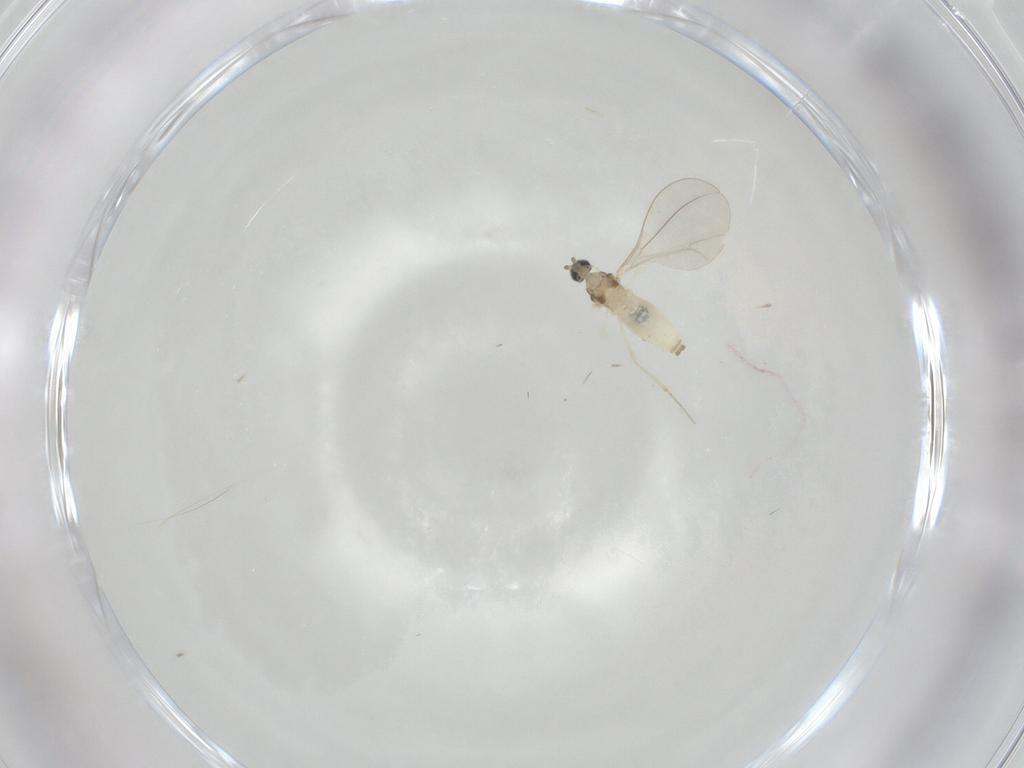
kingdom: Animalia
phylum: Arthropoda
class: Insecta
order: Diptera
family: Cecidomyiidae
